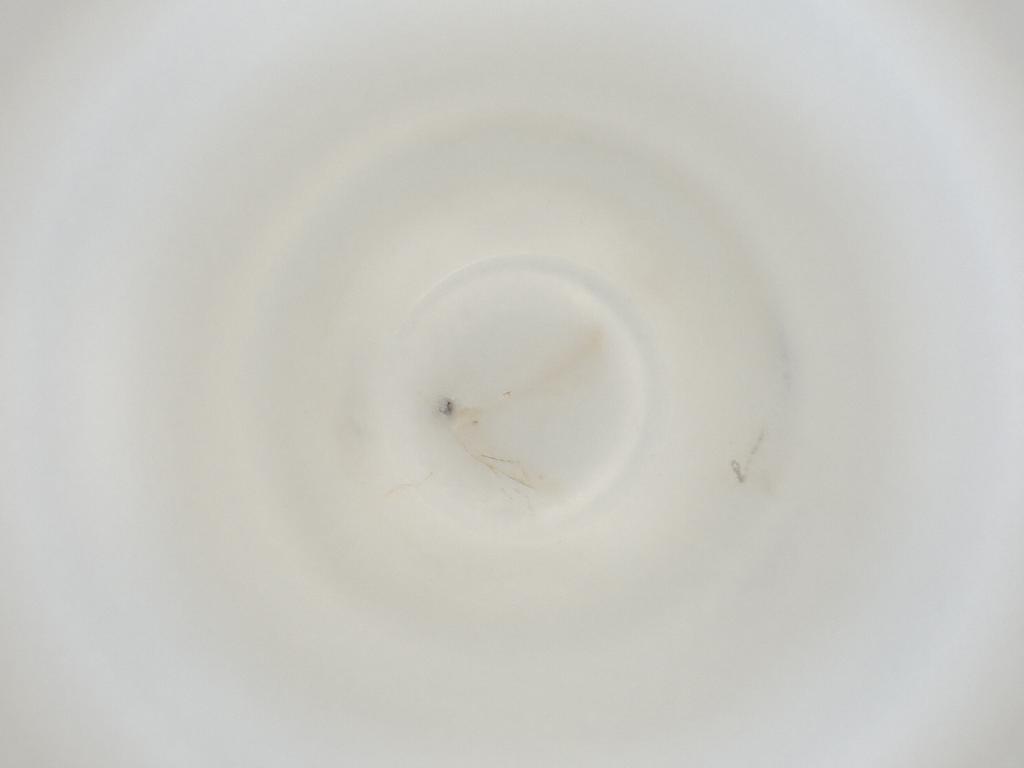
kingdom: Animalia
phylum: Arthropoda
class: Insecta
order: Diptera
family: Cecidomyiidae
